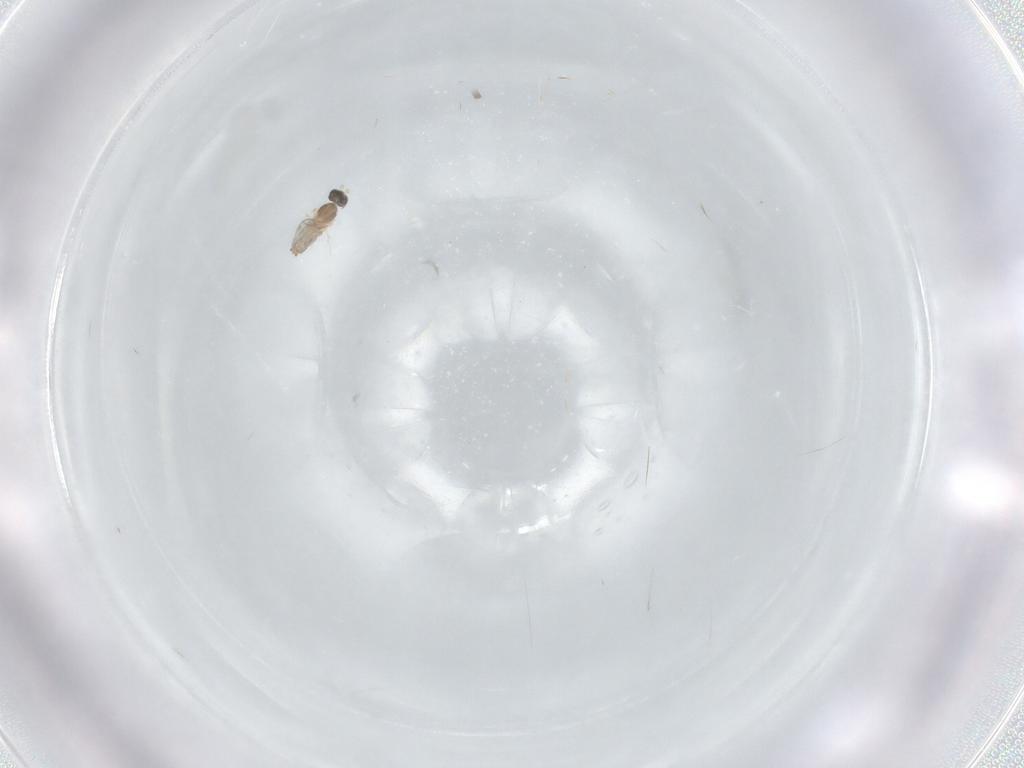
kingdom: Animalia
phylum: Arthropoda
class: Insecta
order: Diptera
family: Cecidomyiidae
